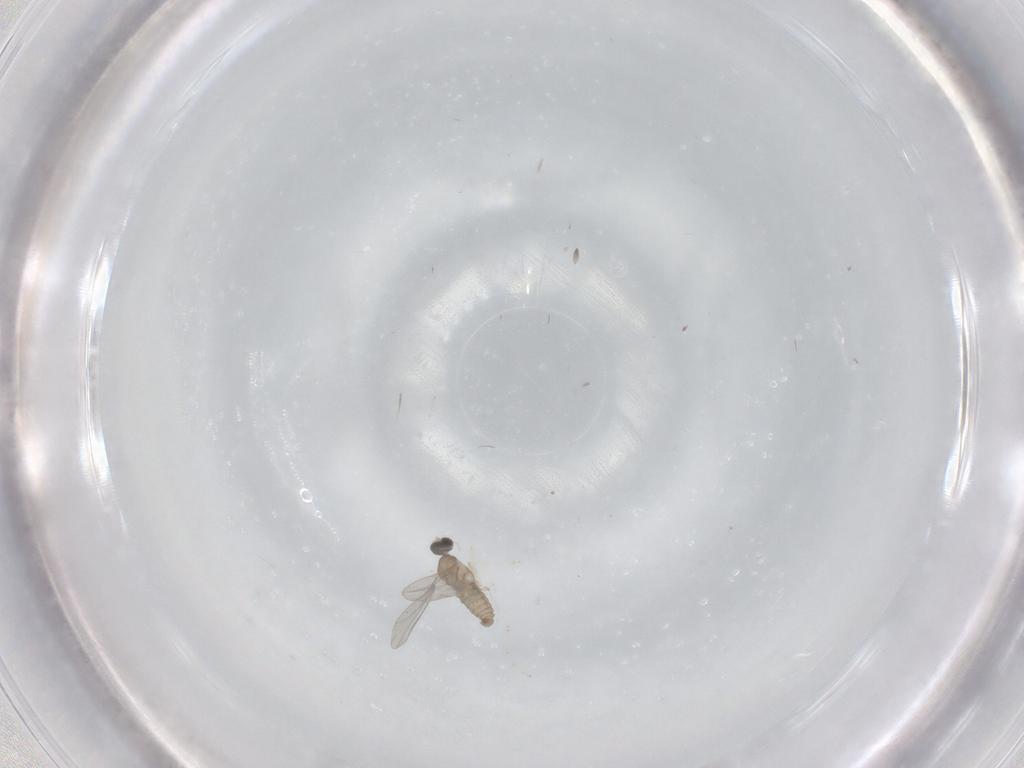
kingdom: Animalia
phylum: Arthropoda
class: Insecta
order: Diptera
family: Psychodidae
